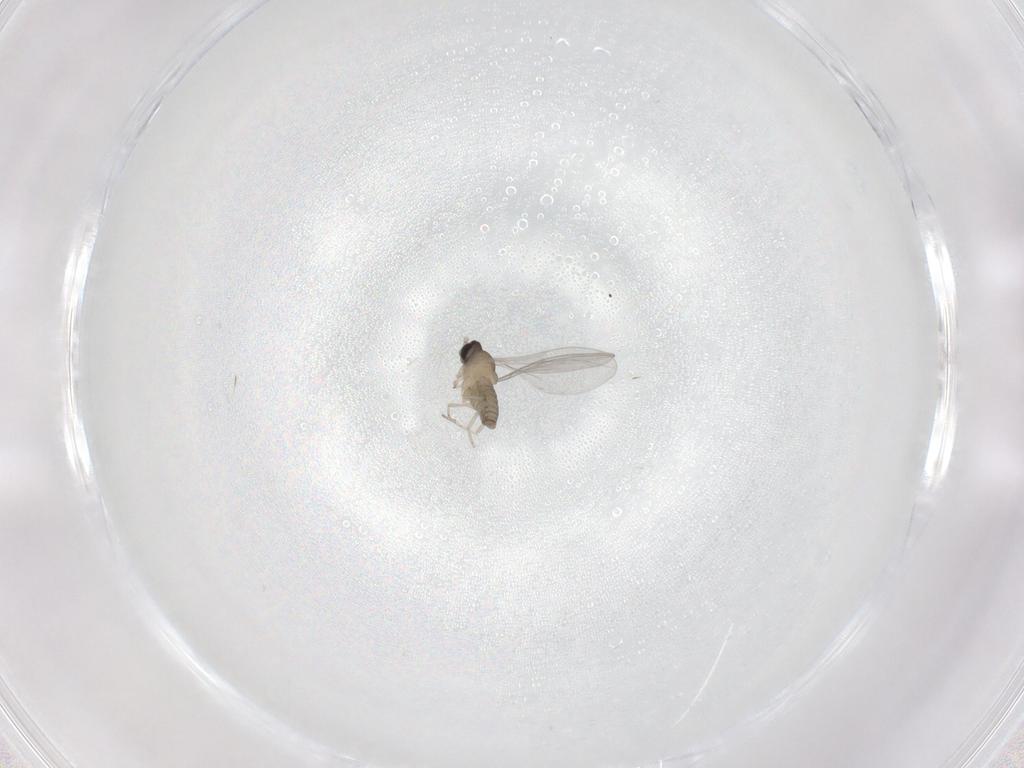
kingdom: Animalia
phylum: Arthropoda
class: Insecta
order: Diptera
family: Cecidomyiidae
